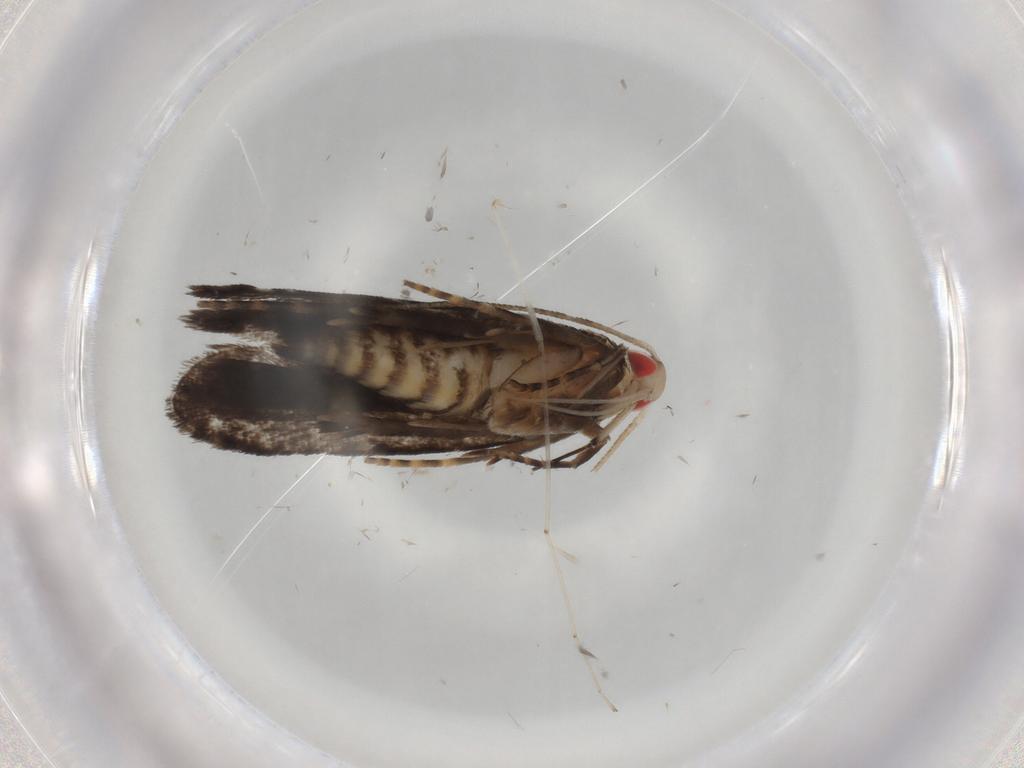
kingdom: Animalia
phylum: Arthropoda
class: Insecta
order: Lepidoptera
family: Gelechiidae
